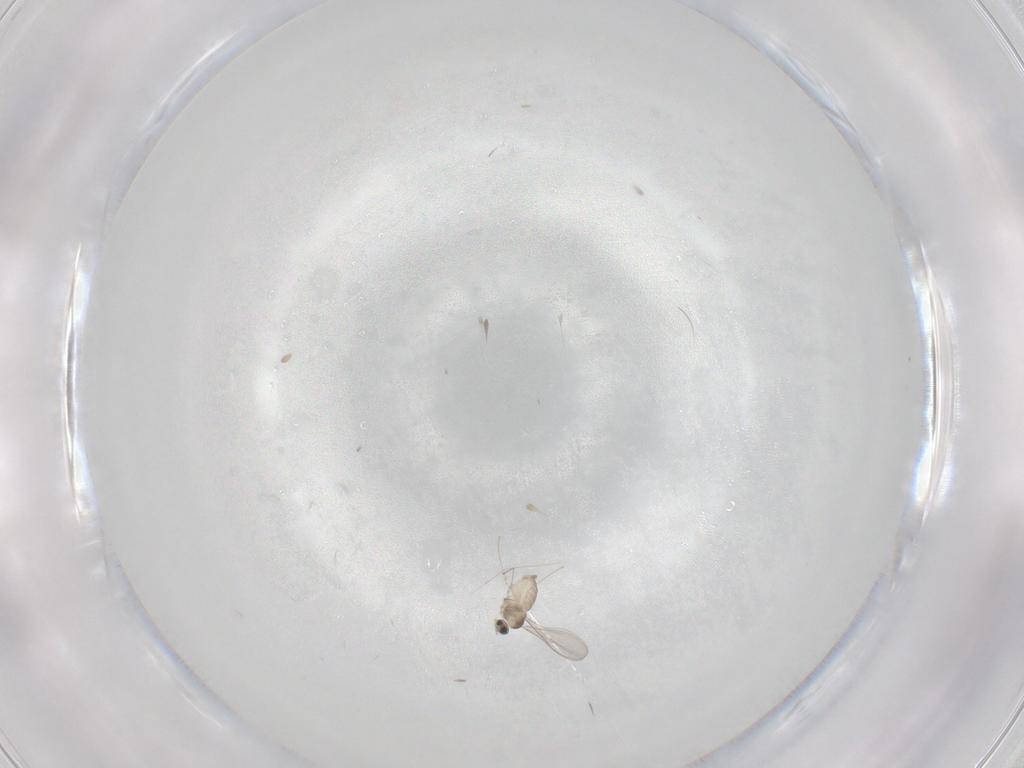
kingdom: Animalia
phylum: Arthropoda
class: Insecta
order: Diptera
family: Cecidomyiidae
